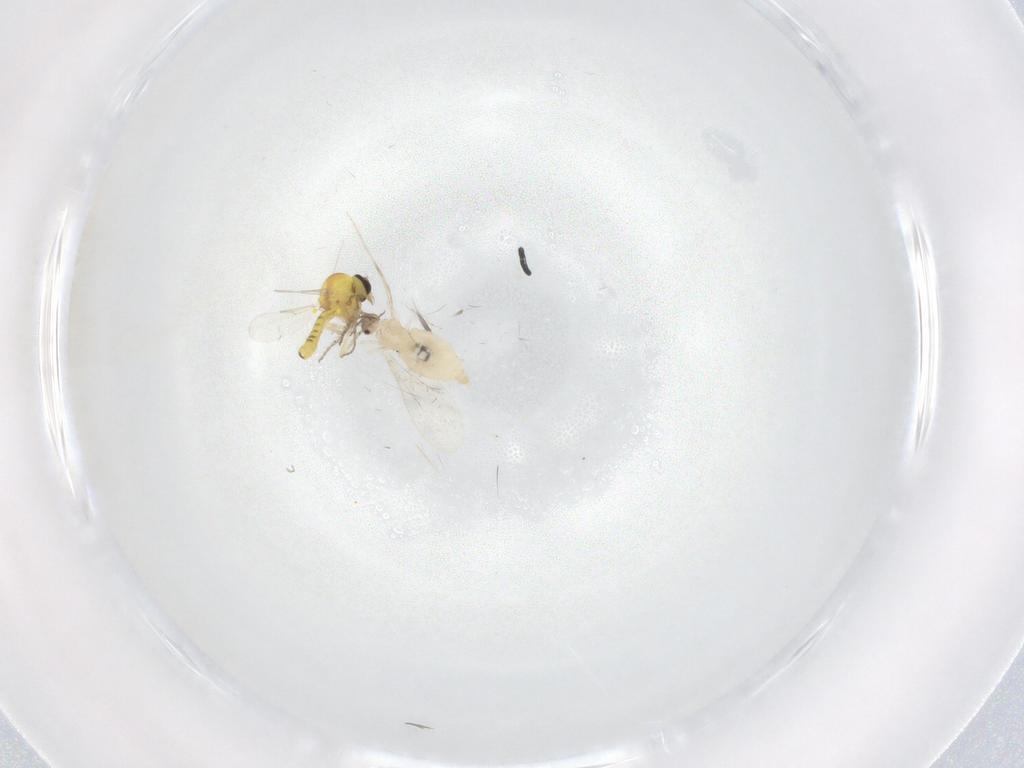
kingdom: Animalia
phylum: Arthropoda
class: Insecta
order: Diptera
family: Ceratopogonidae
